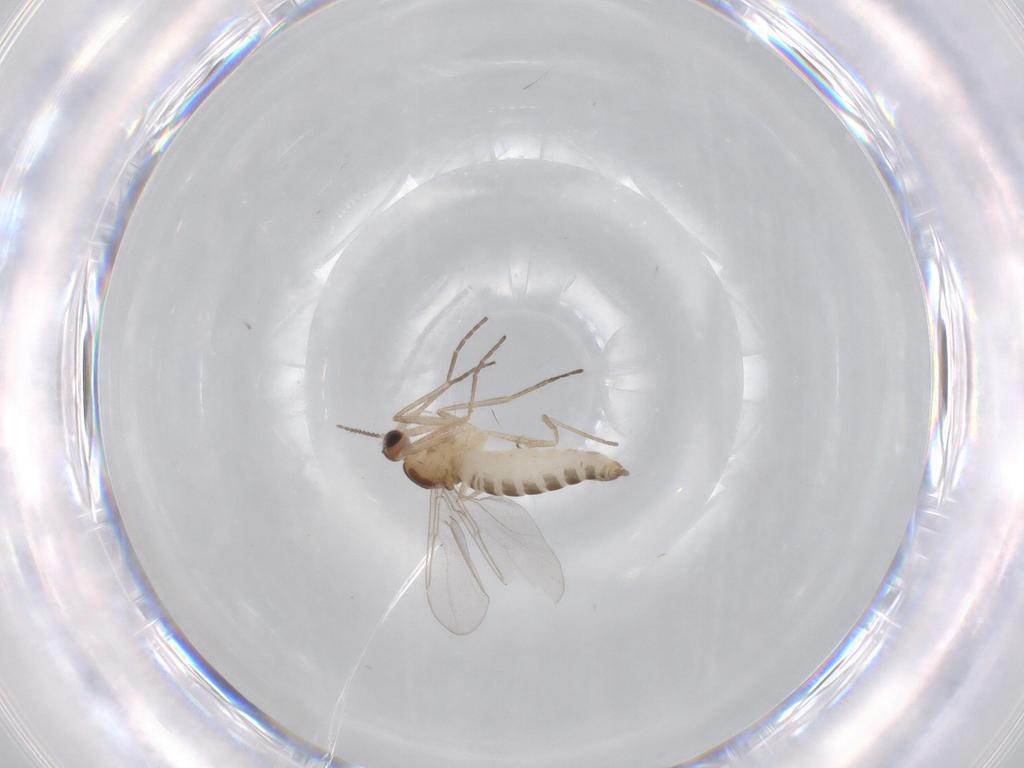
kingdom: Animalia
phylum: Arthropoda
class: Insecta
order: Diptera
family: Cecidomyiidae
